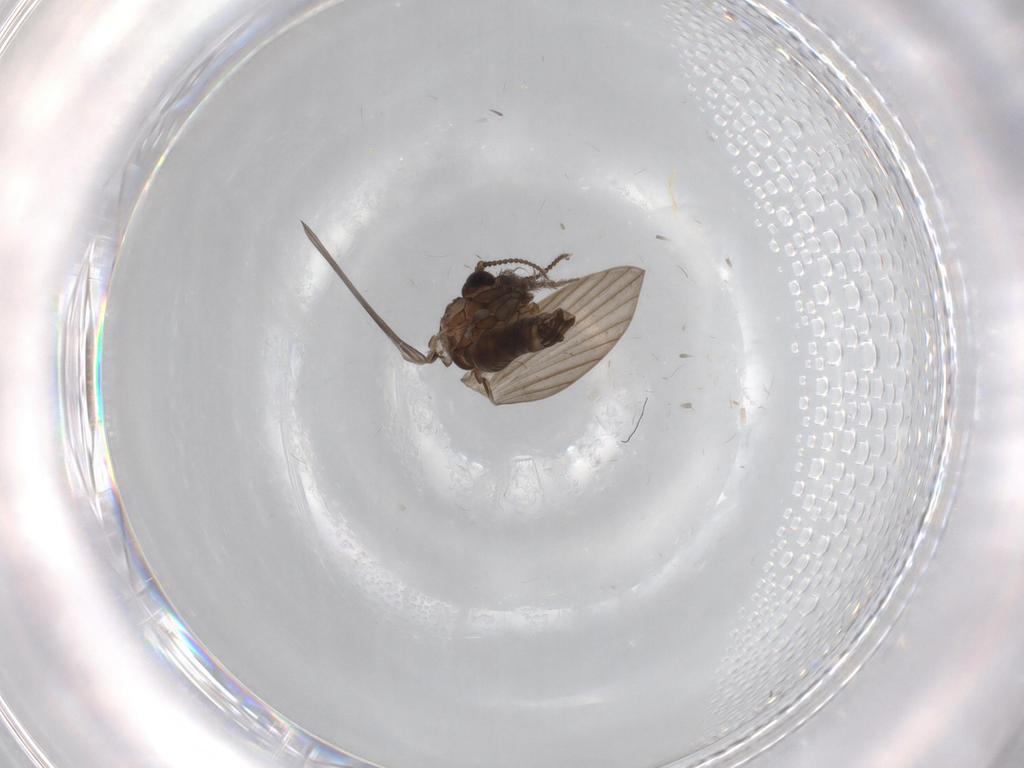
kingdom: Animalia
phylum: Arthropoda
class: Insecta
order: Diptera
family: Psychodidae
